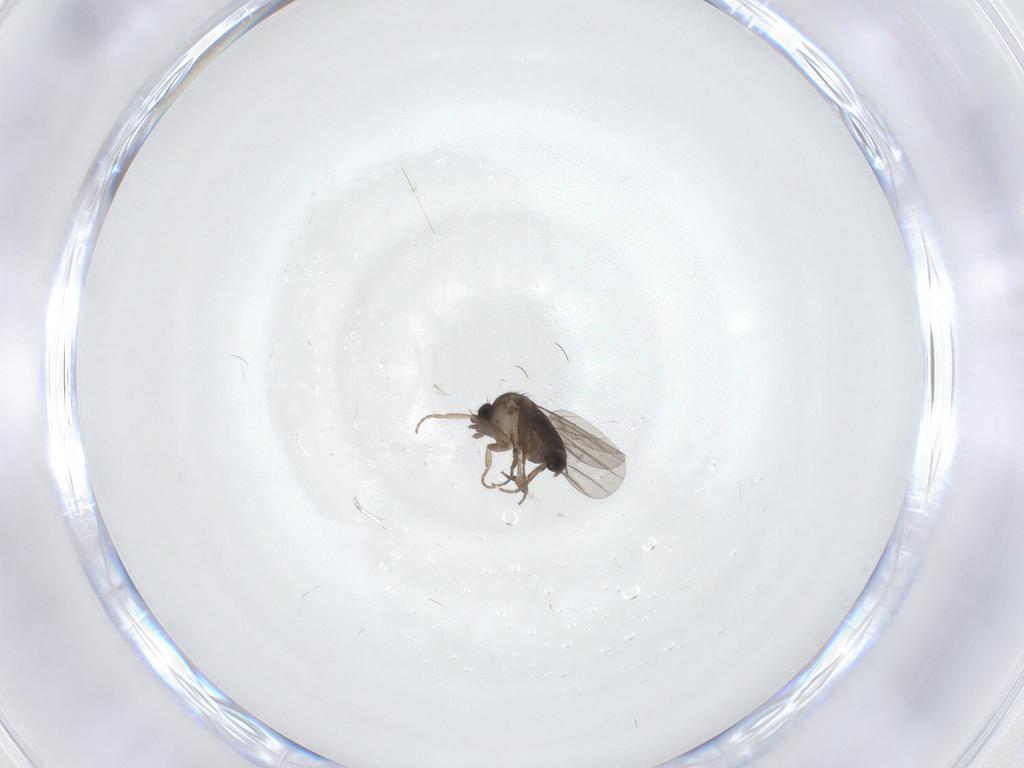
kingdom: Animalia
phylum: Arthropoda
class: Insecta
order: Diptera
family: Phoridae
